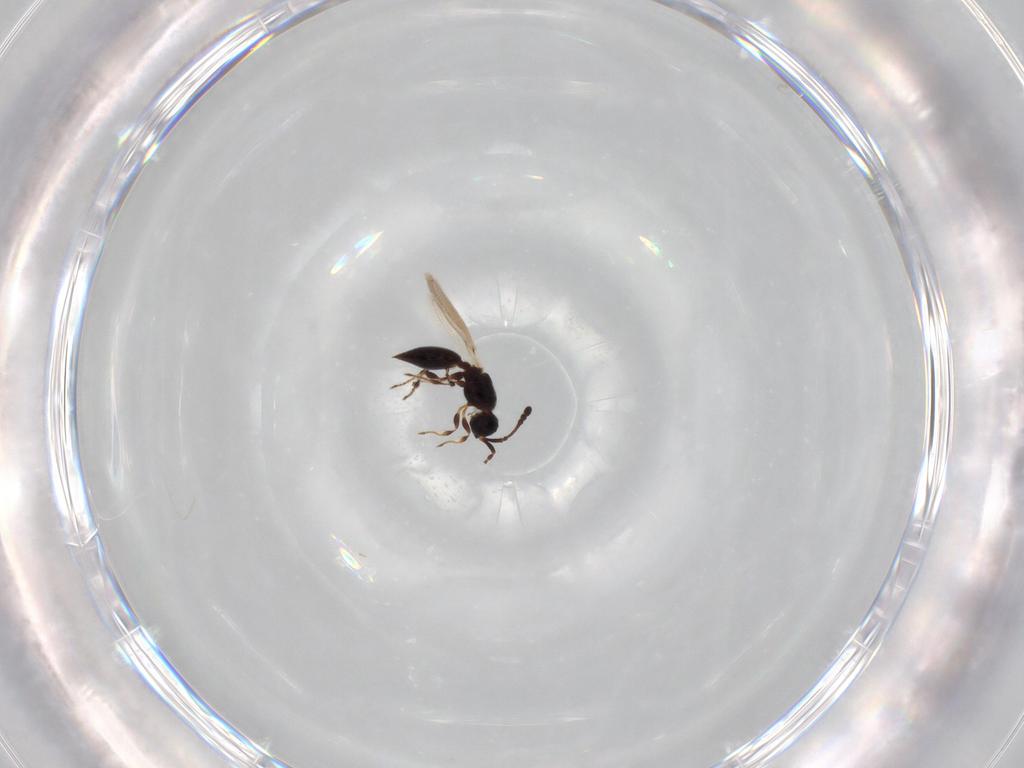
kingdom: Animalia
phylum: Arthropoda
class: Insecta
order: Hymenoptera
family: Diapriidae
